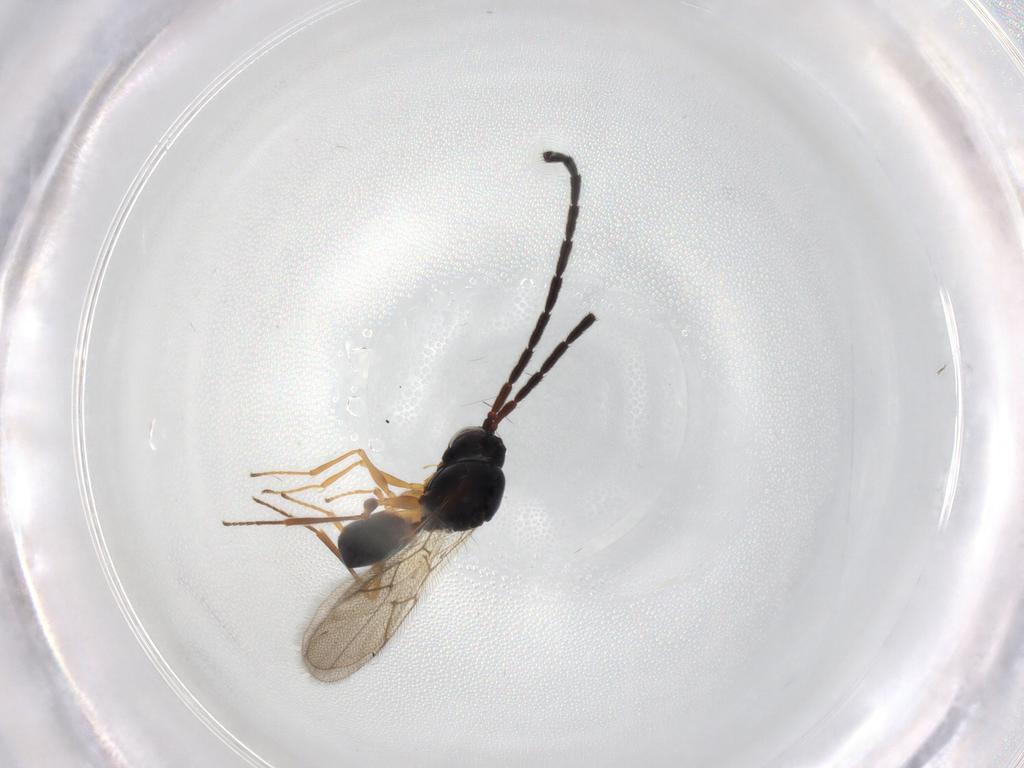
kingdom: Animalia
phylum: Arthropoda
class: Insecta
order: Hymenoptera
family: Figitidae
